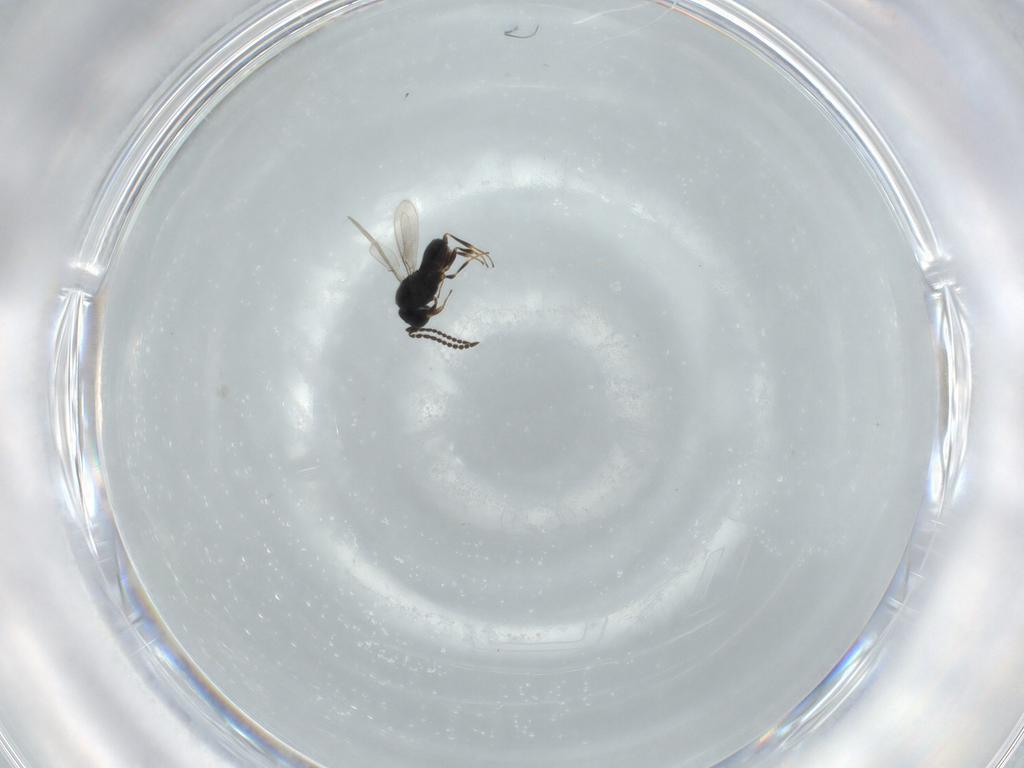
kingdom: Animalia
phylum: Arthropoda
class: Insecta
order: Hymenoptera
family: Scelionidae
